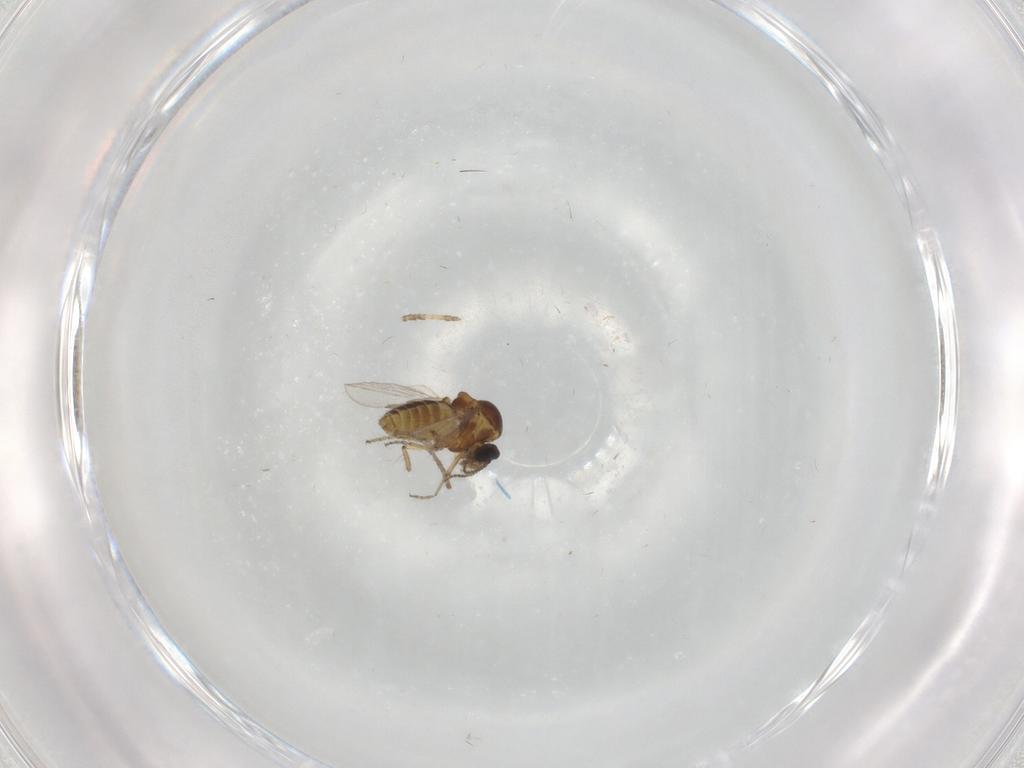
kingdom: Animalia
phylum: Arthropoda
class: Insecta
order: Diptera
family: Ceratopogonidae
